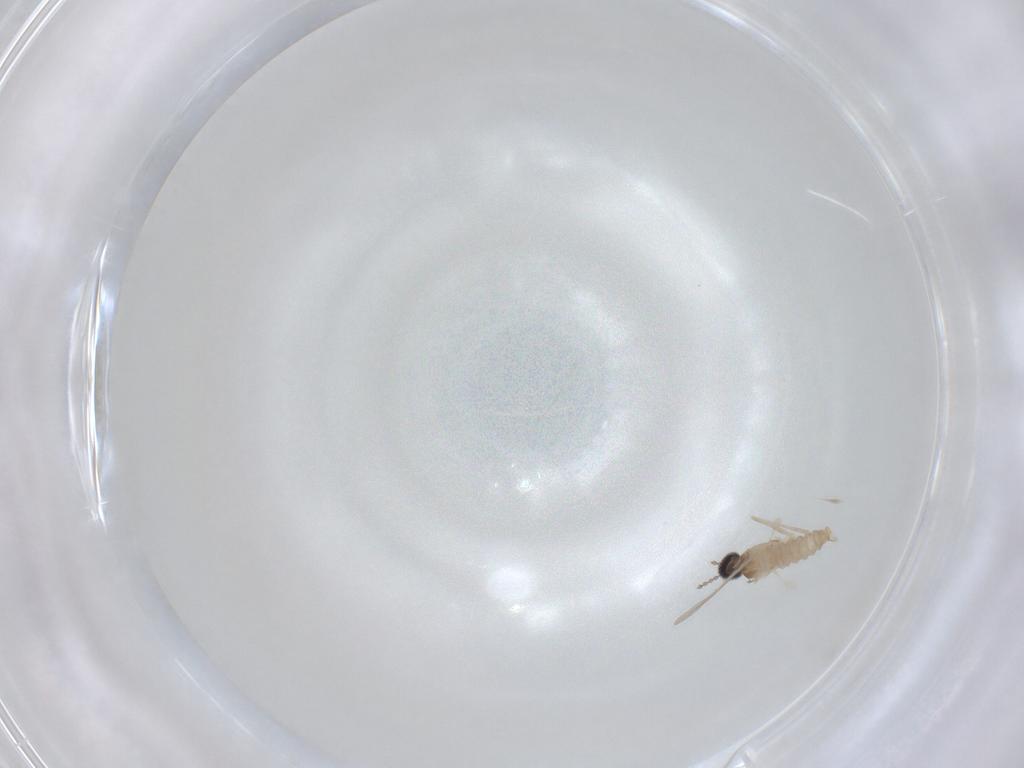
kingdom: Animalia
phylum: Arthropoda
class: Insecta
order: Diptera
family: Cecidomyiidae
